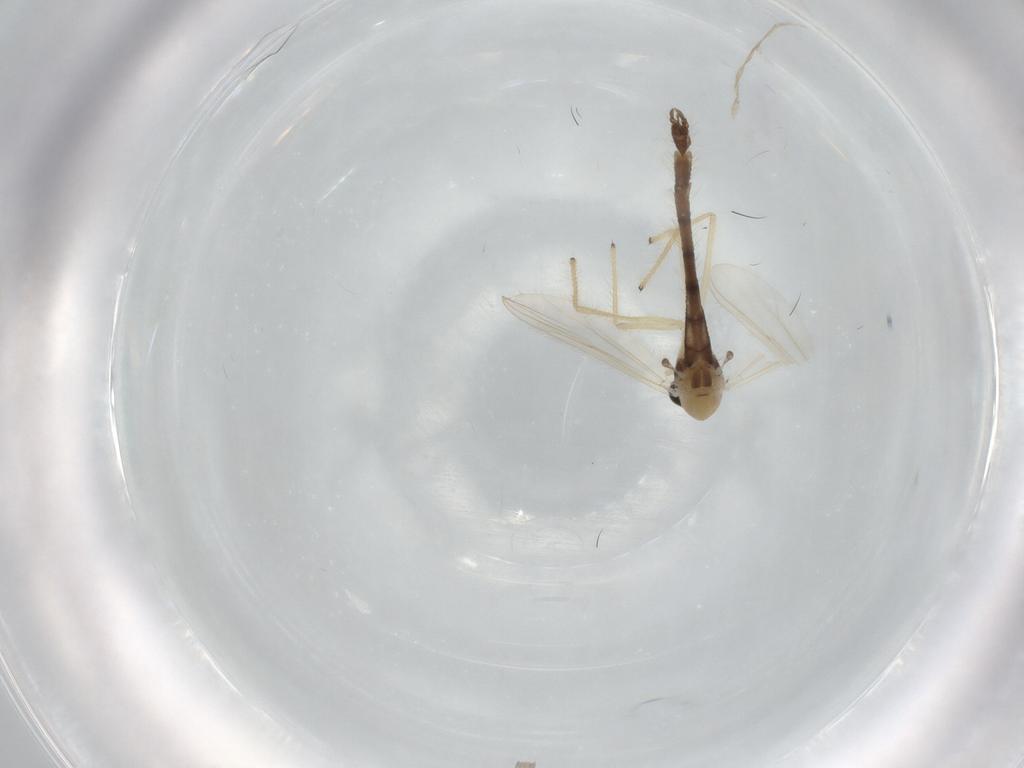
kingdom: Animalia
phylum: Arthropoda
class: Insecta
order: Diptera
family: Chironomidae
